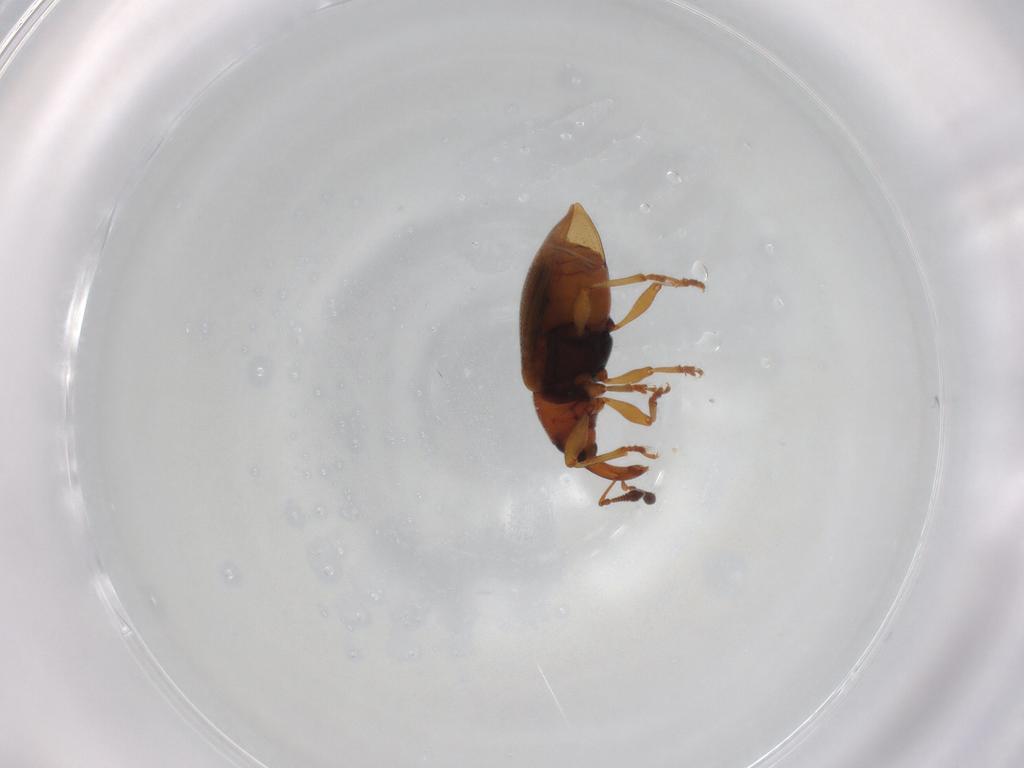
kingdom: Animalia
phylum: Arthropoda
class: Insecta
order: Coleoptera
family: Curculionidae
